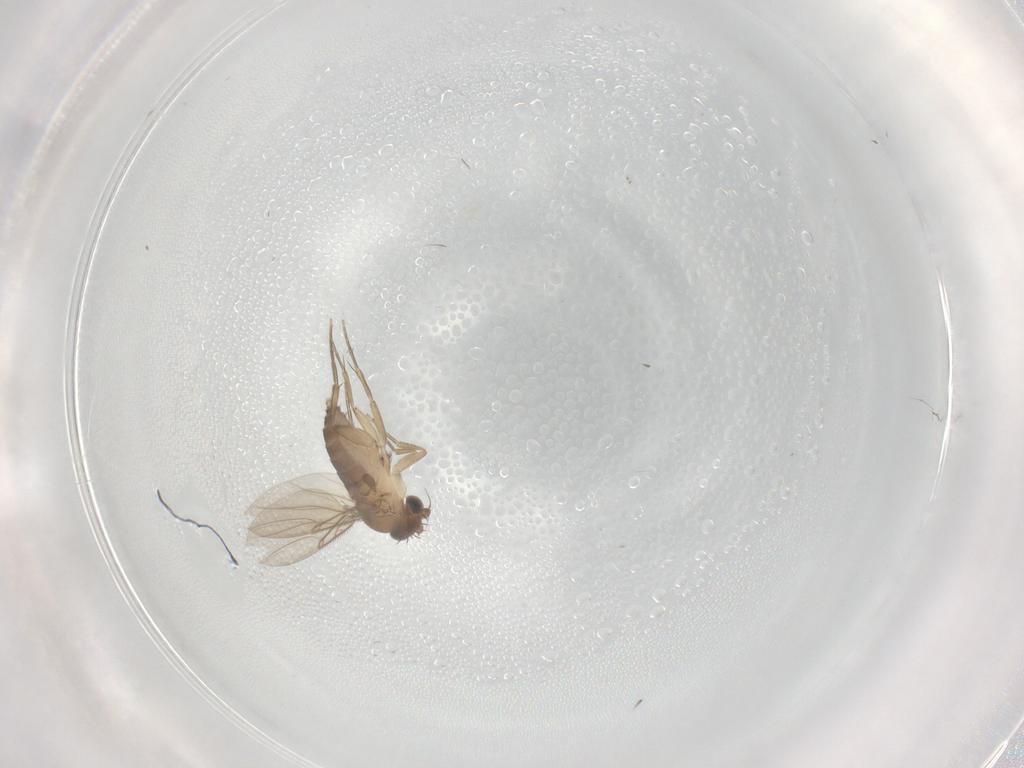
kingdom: Animalia
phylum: Arthropoda
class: Insecta
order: Diptera
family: Phoridae
